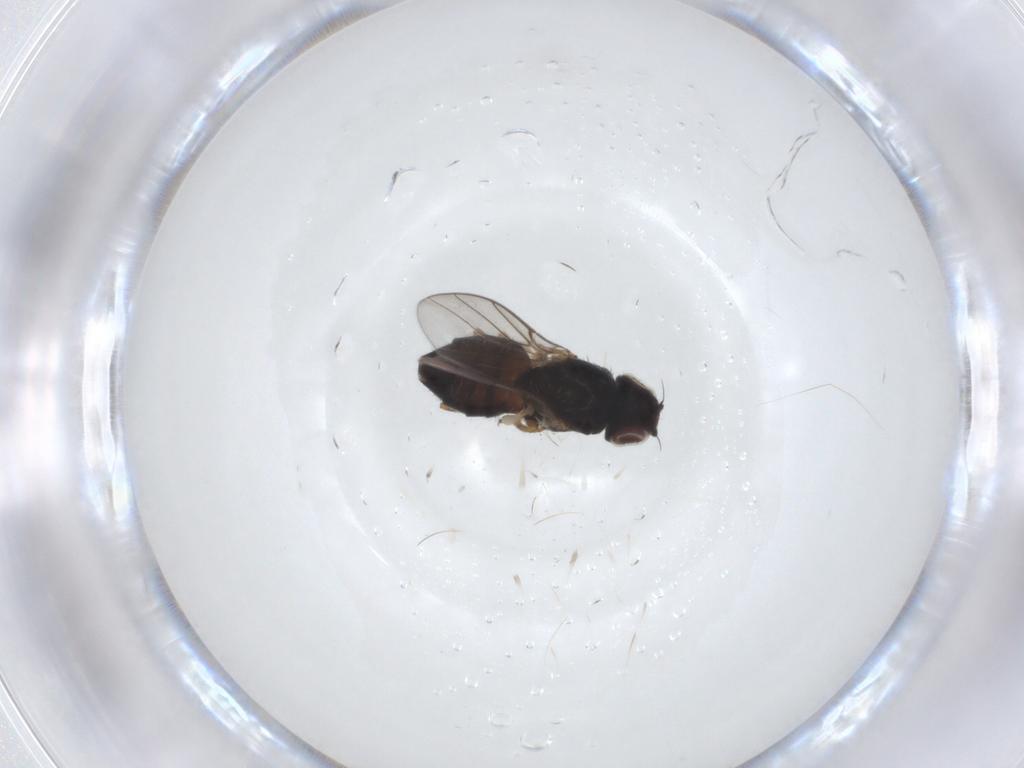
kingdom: Animalia
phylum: Arthropoda
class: Insecta
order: Diptera
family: Chloropidae
